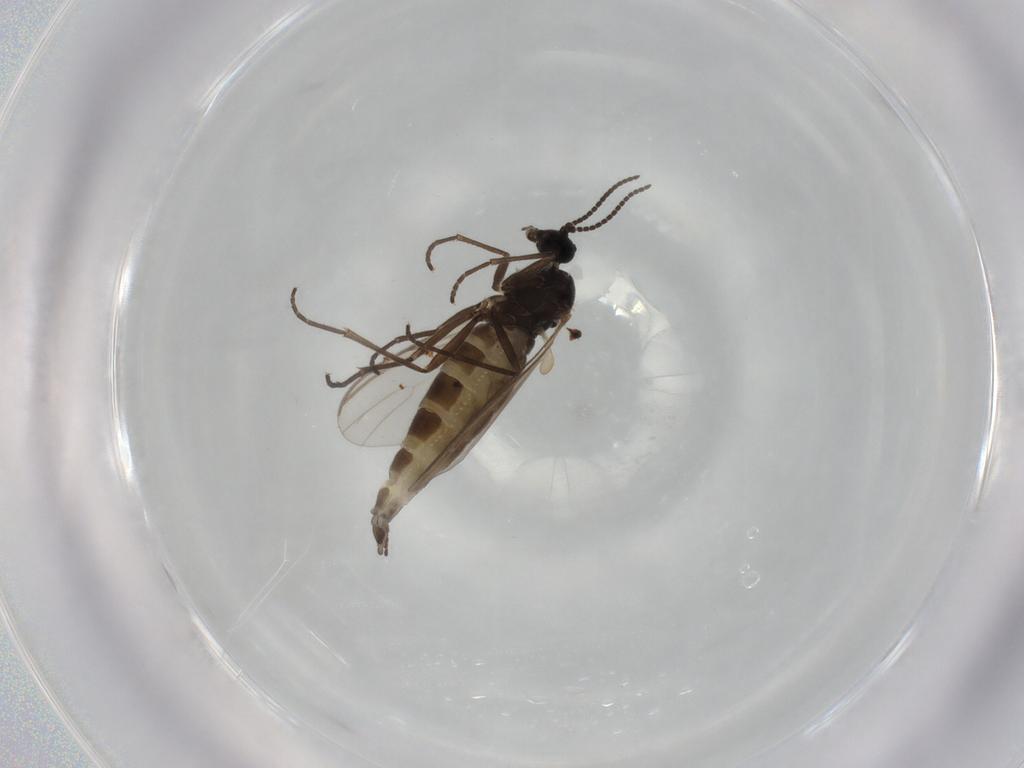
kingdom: Animalia
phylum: Arthropoda
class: Insecta
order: Diptera
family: Sciaridae
